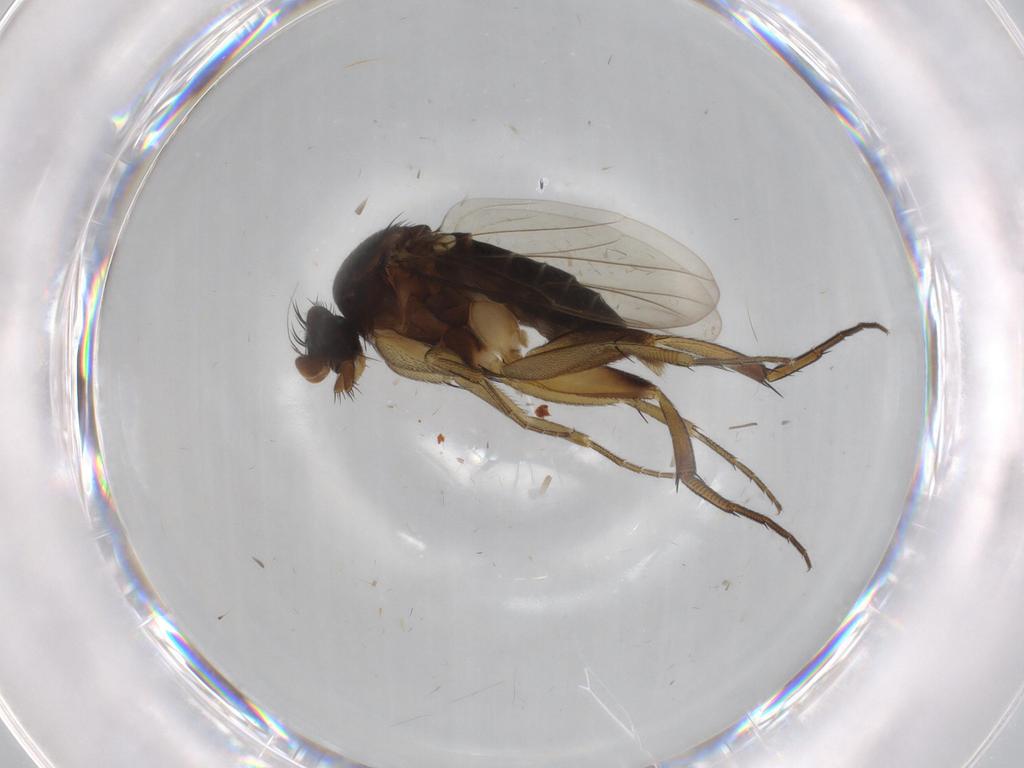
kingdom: Animalia
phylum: Arthropoda
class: Insecta
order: Diptera
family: Phoridae
